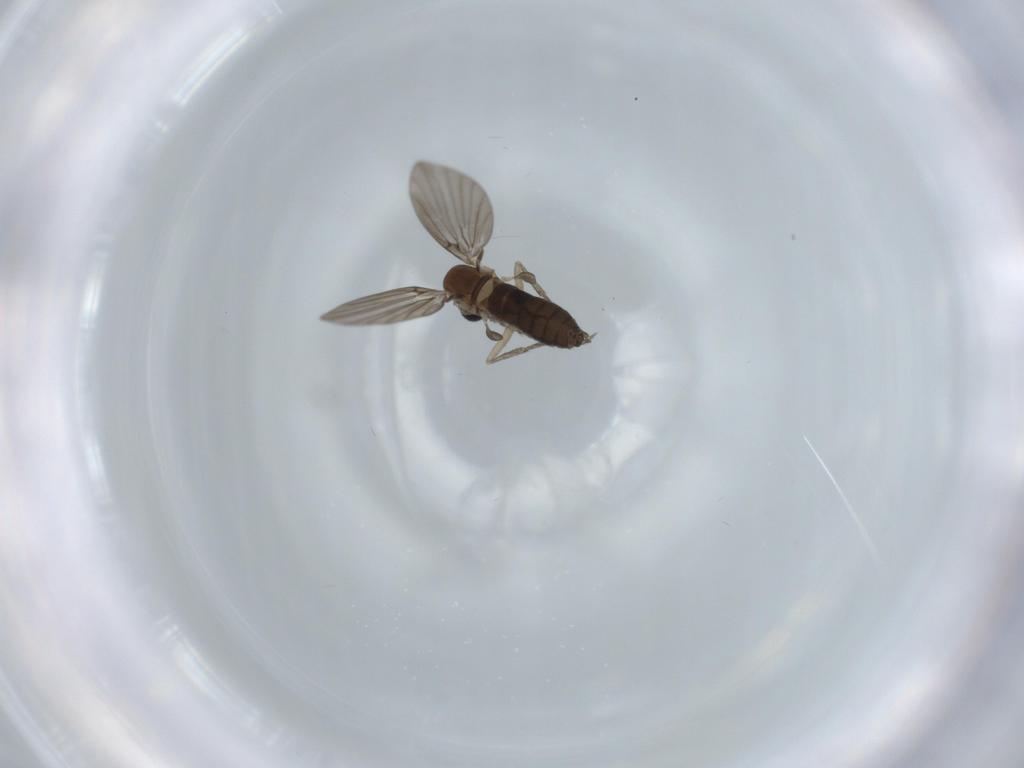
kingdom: Animalia
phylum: Arthropoda
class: Insecta
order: Diptera
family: Psychodidae
